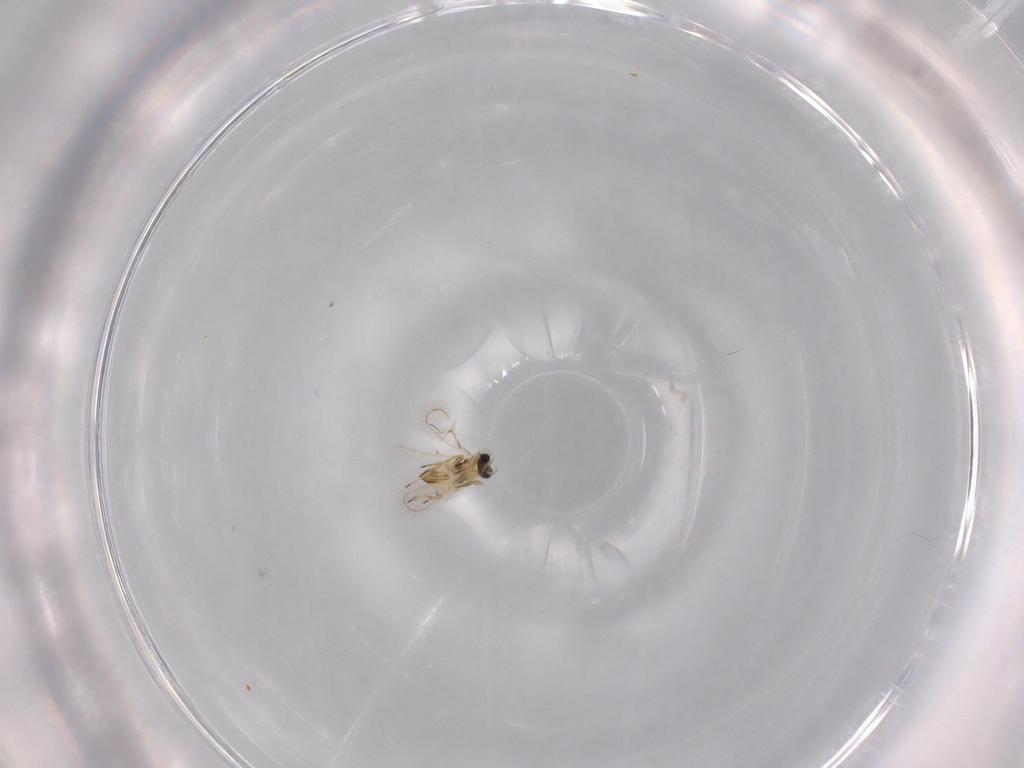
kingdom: Animalia
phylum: Arthropoda
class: Insecta
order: Hymenoptera
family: Trichogrammatidae
